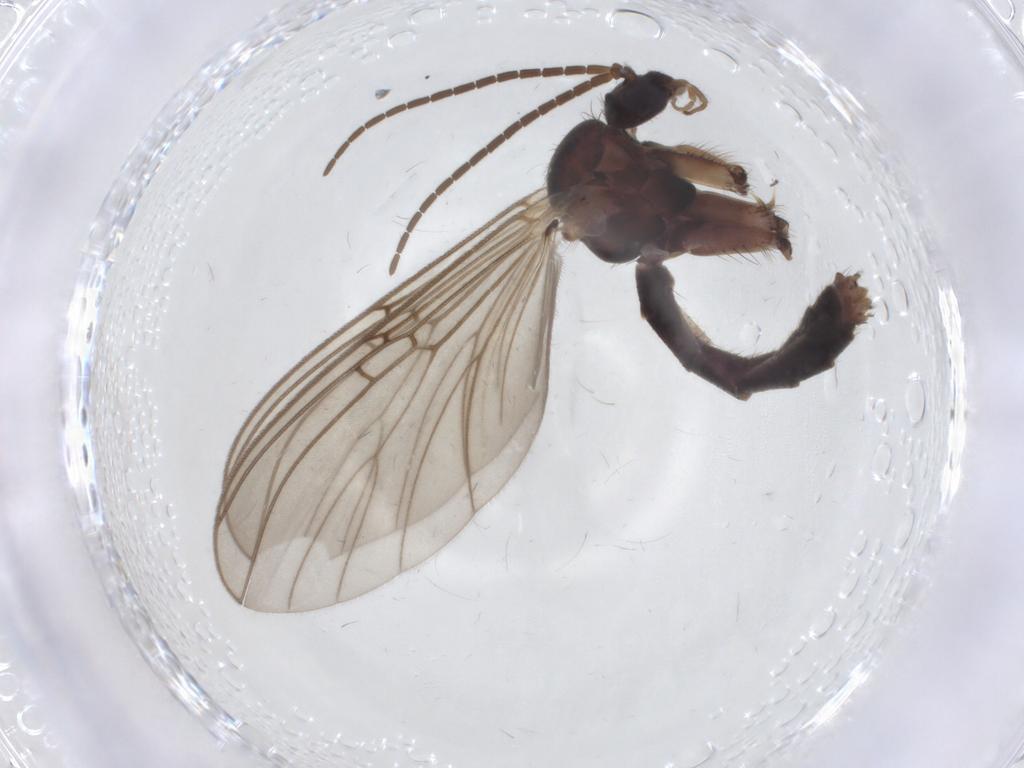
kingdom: Animalia
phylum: Arthropoda
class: Insecta
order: Diptera
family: Mycetophilidae
